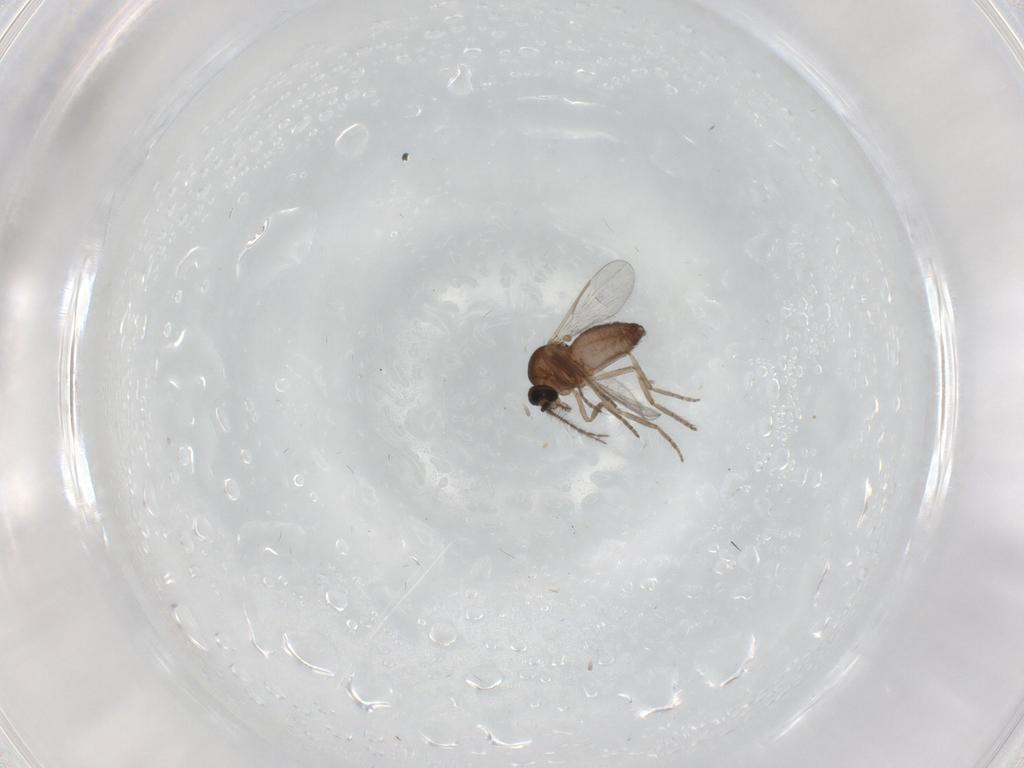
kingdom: Animalia
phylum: Arthropoda
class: Insecta
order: Diptera
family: Ceratopogonidae
